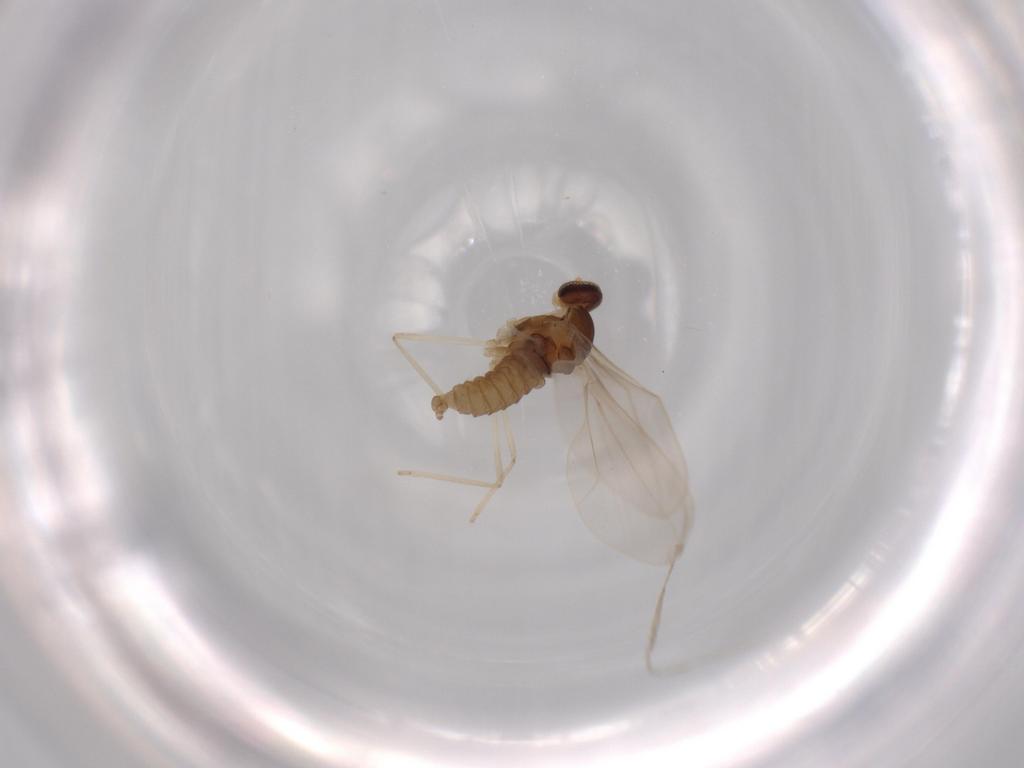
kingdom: Animalia
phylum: Arthropoda
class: Insecta
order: Diptera
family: Cecidomyiidae
